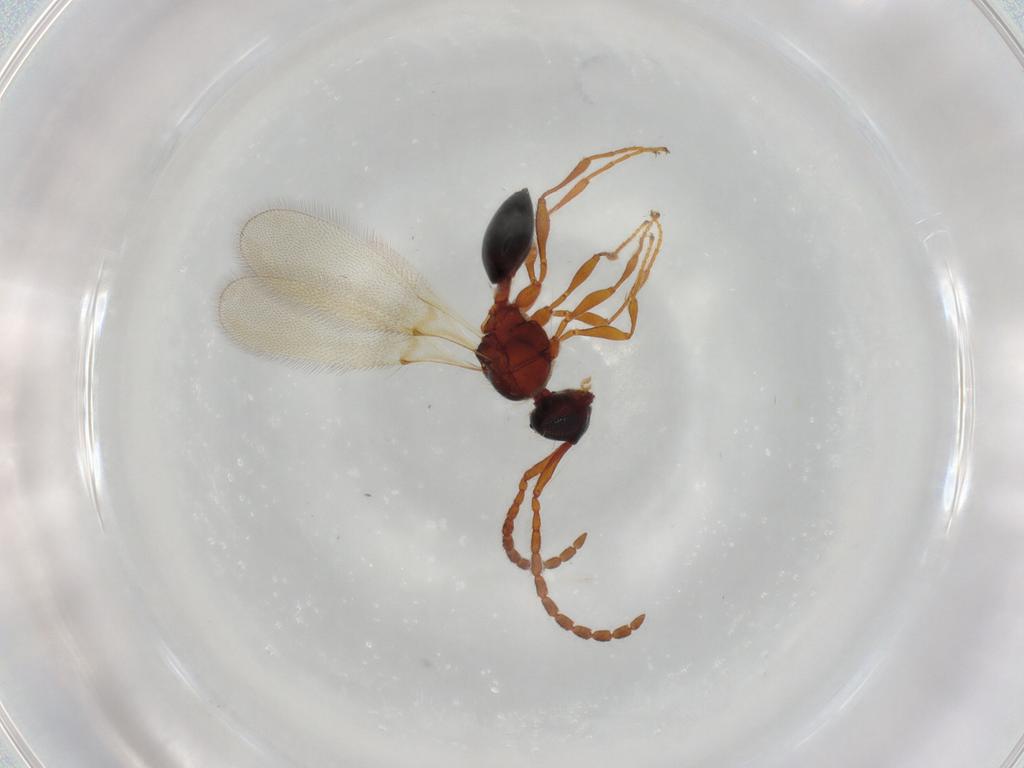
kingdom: Animalia
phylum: Arthropoda
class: Insecta
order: Hymenoptera
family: Diapriidae
